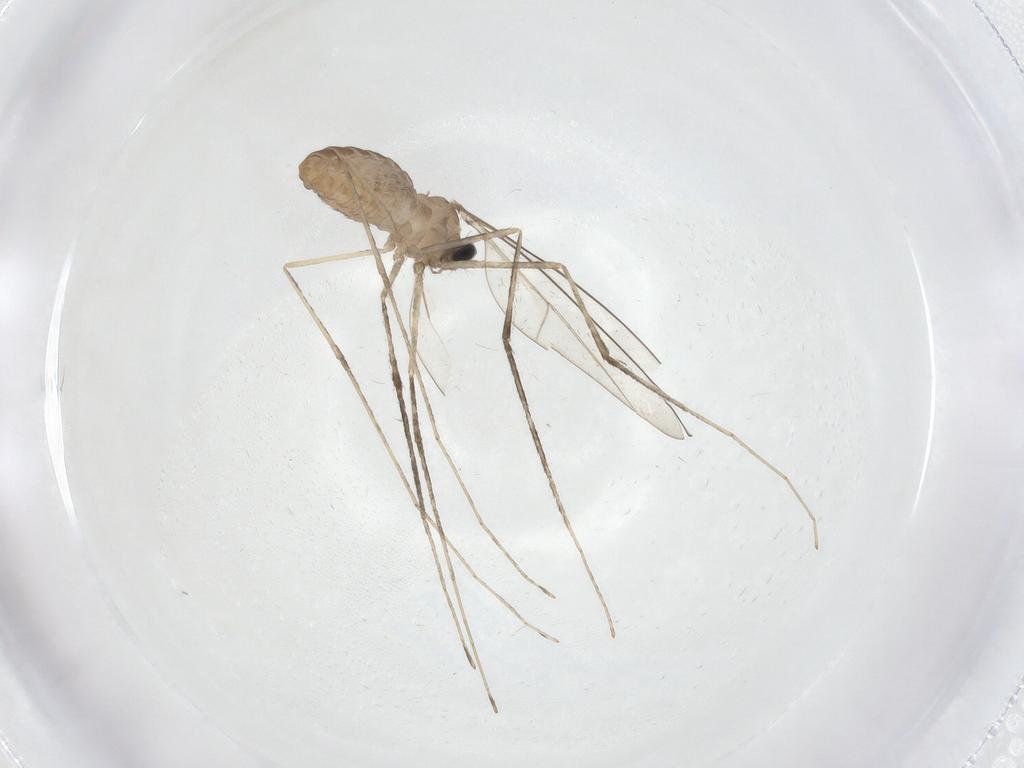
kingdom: Animalia
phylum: Arthropoda
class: Insecta
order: Diptera
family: Cecidomyiidae
